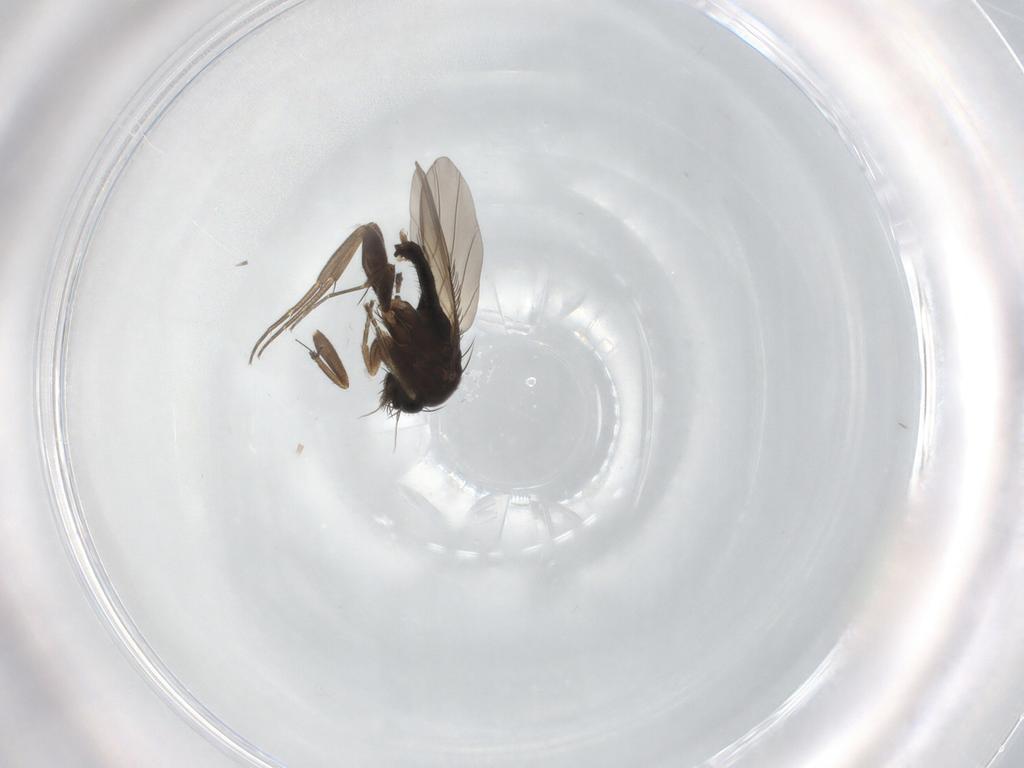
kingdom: Animalia
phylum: Arthropoda
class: Insecta
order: Diptera
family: Phoridae
